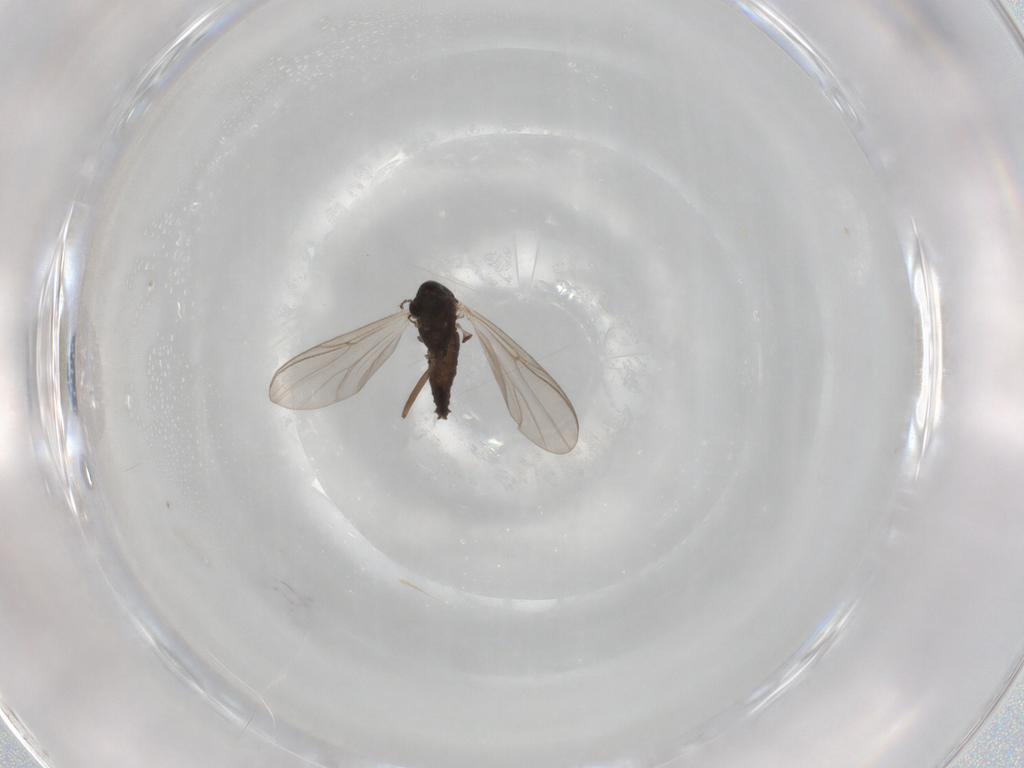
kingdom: Animalia
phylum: Arthropoda
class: Insecta
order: Diptera
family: Chironomidae
